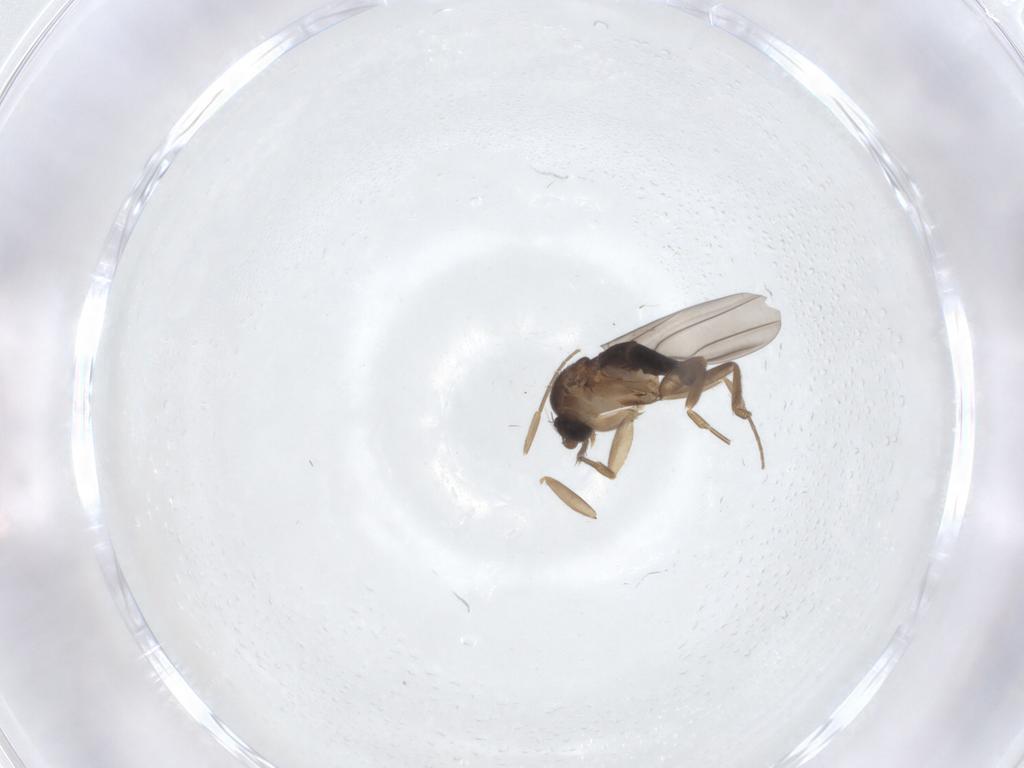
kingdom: Animalia
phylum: Arthropoda
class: Insecta
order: Diptera
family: Phoridae
